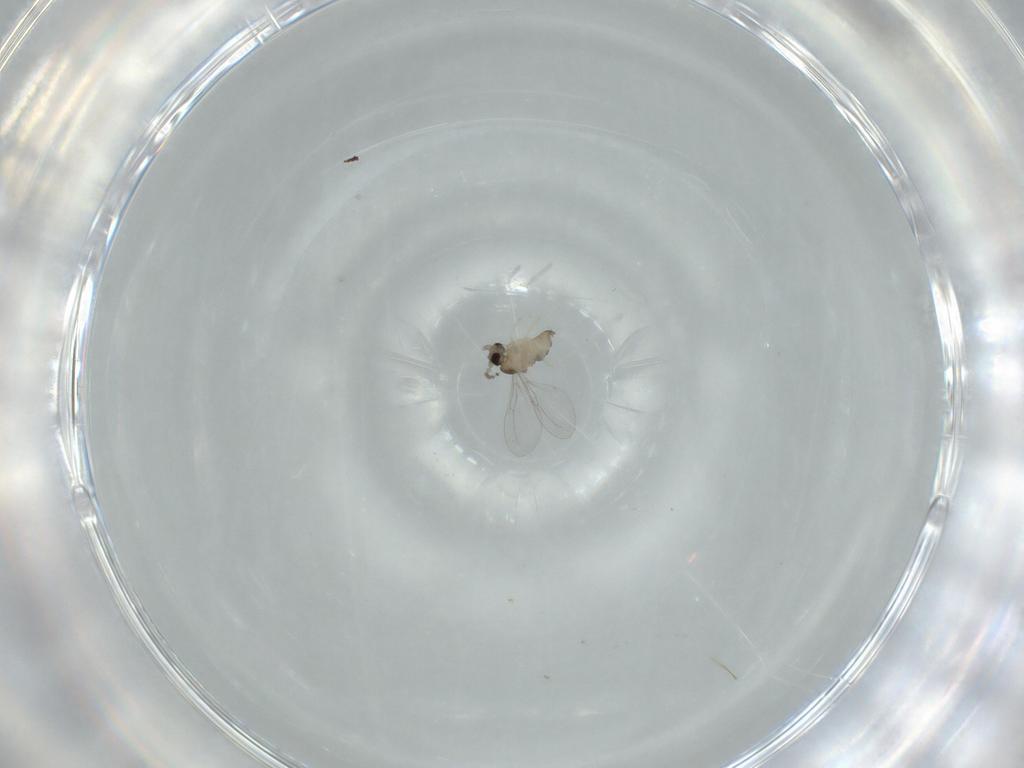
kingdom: Animalia
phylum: Arthropoda
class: Insecta
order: Diptera
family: Cecidomyiidae
